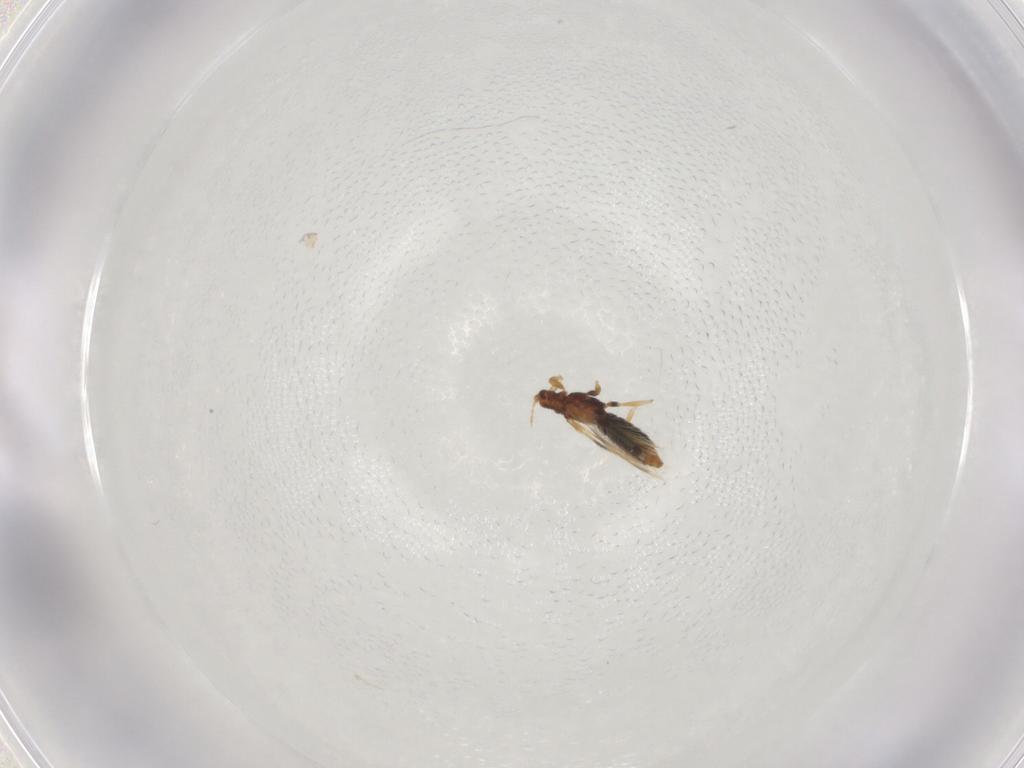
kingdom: Animalia
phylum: Arthropoda
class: Insecta
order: Thysanoptera
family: Thripidae
